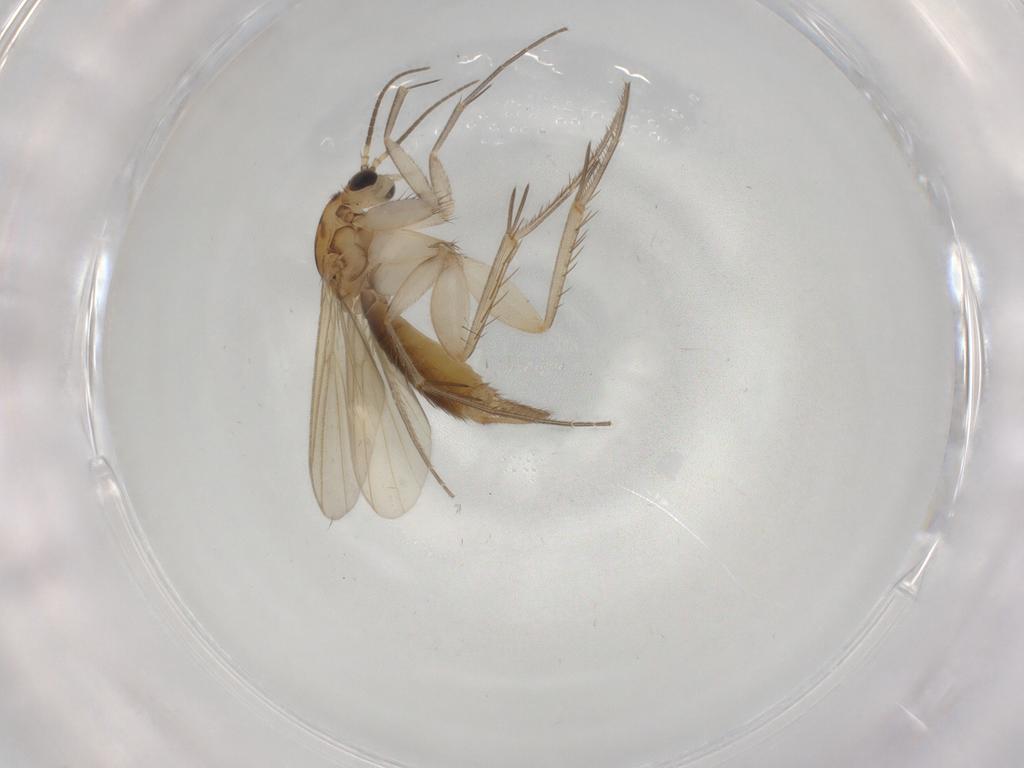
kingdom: Animalia
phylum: Arthropoda
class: Insecta
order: Diptera
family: Mycetophilidae
